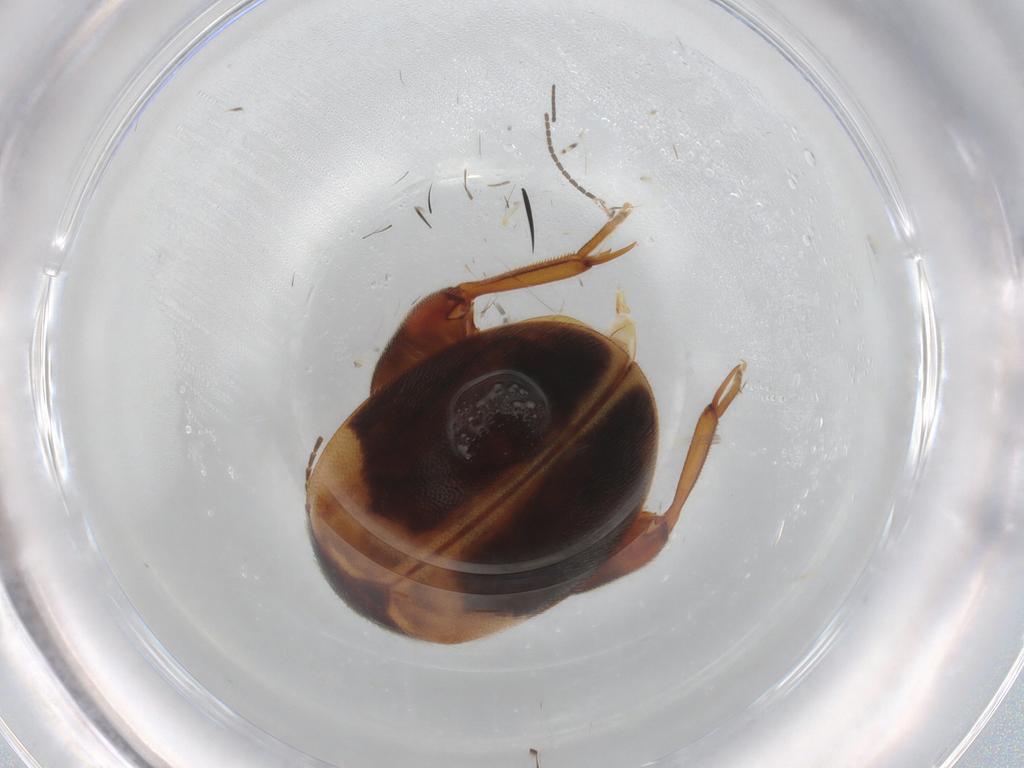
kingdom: Animalia
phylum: Arthropoda
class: Insecta
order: Coleoptera
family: Scirtidae
